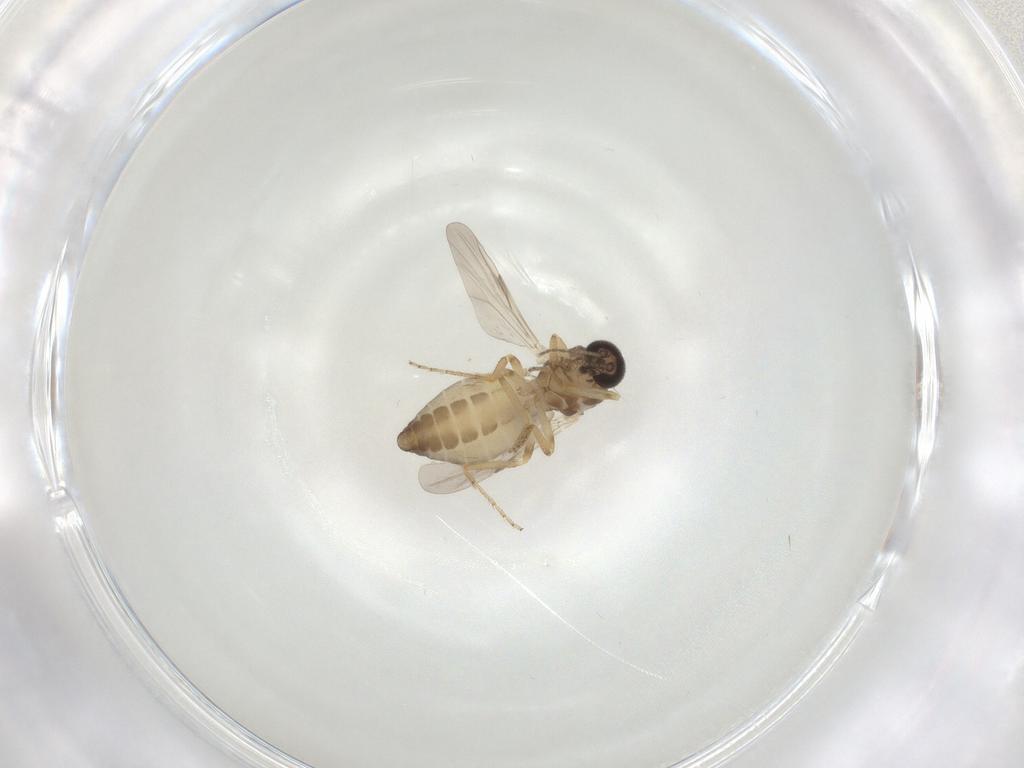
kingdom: Animalia
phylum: Arthropoda
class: Insecta
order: Diptera
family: Ceratopogonidae
